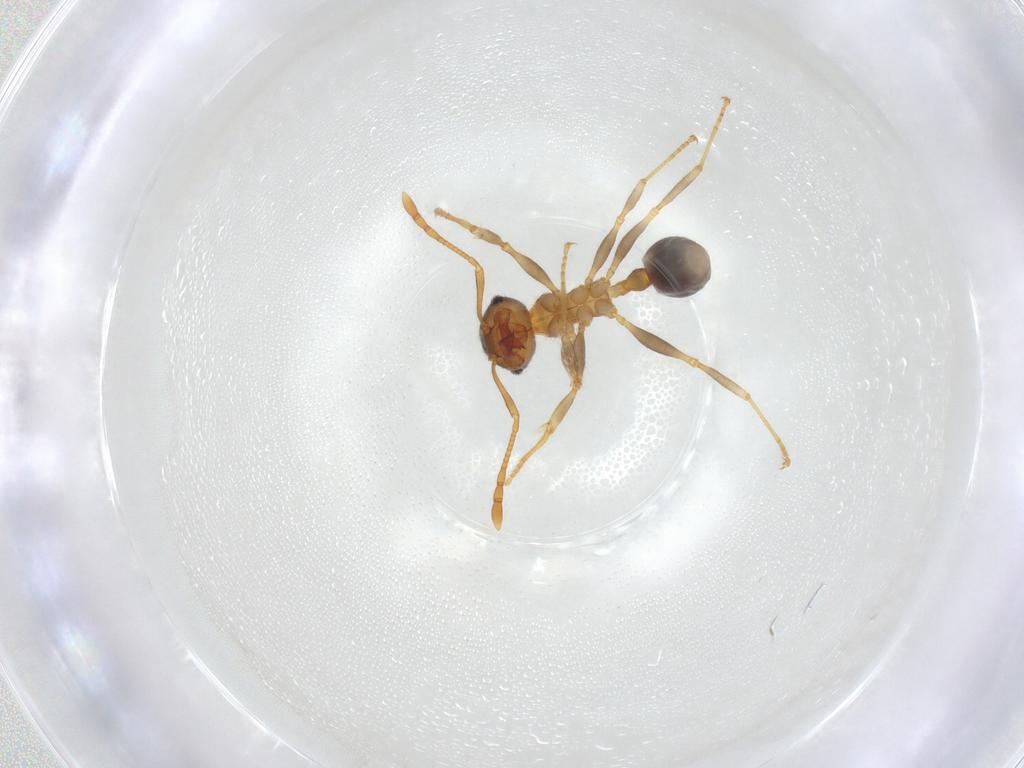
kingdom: Animalia
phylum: Arthropoda
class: Insecta
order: Hymenoptera
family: Formicidae
